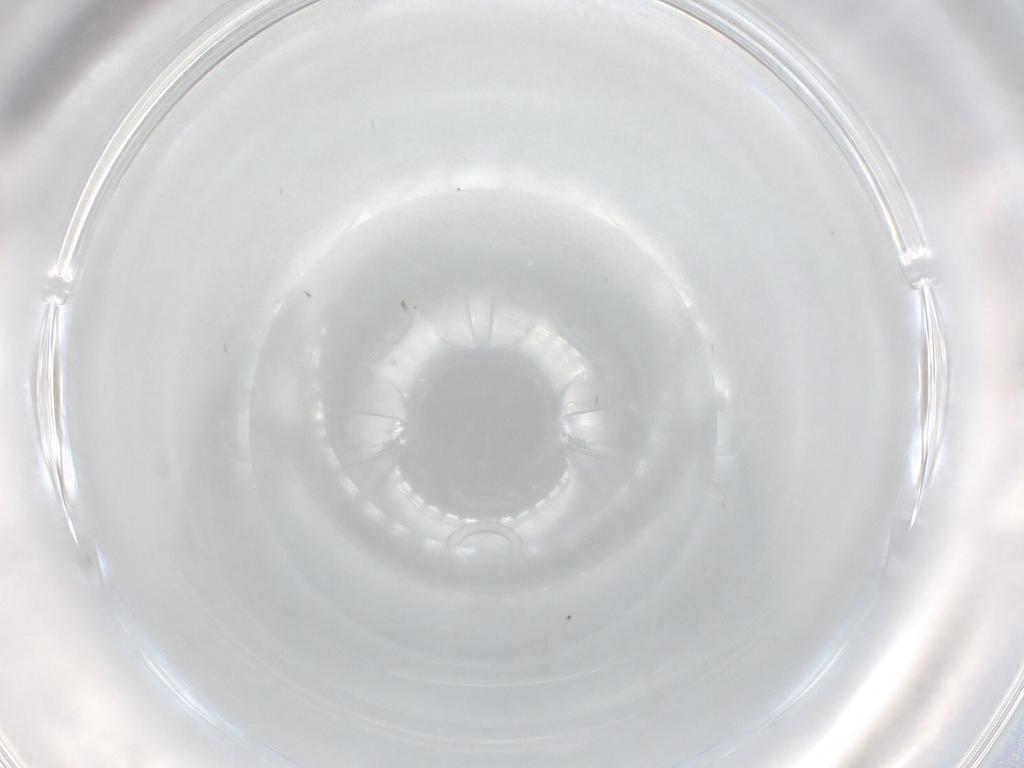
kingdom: Animalia
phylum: Arthropoda
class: Insecta
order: Diptera
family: Cecidomyiidae
